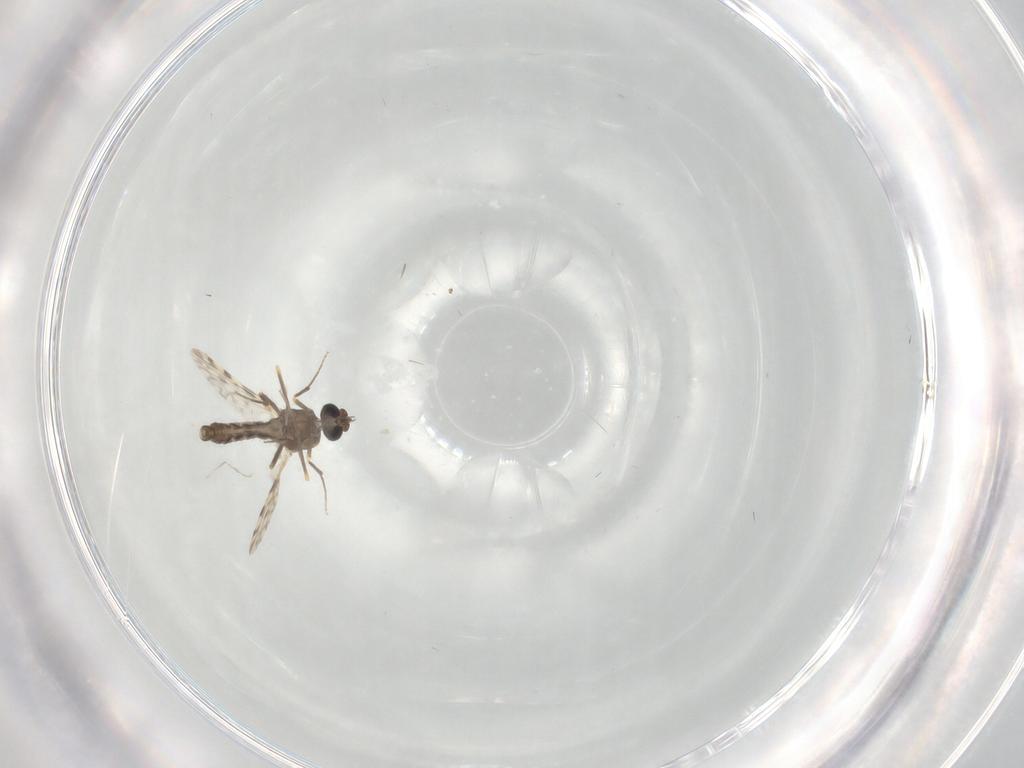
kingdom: Animalia
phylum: Arthropoda
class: Insecta
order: Diptera
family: Ceratopogonidae
